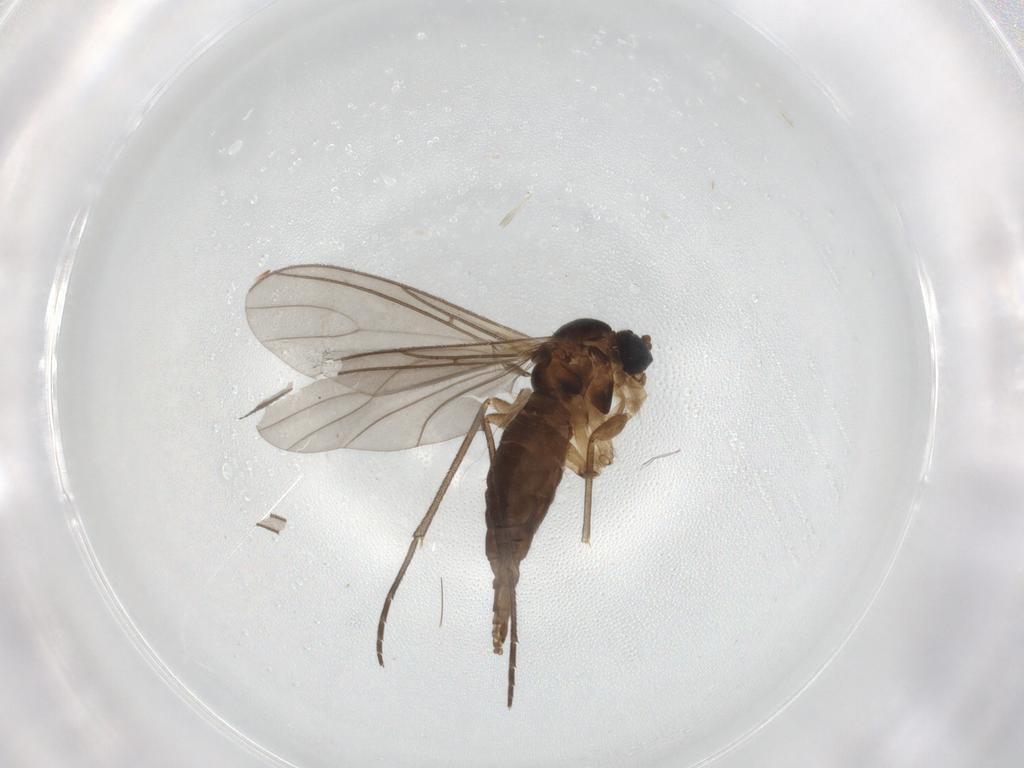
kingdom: Animalia
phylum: Arthropoda
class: Insecta
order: Diptera
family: Sciaridae
